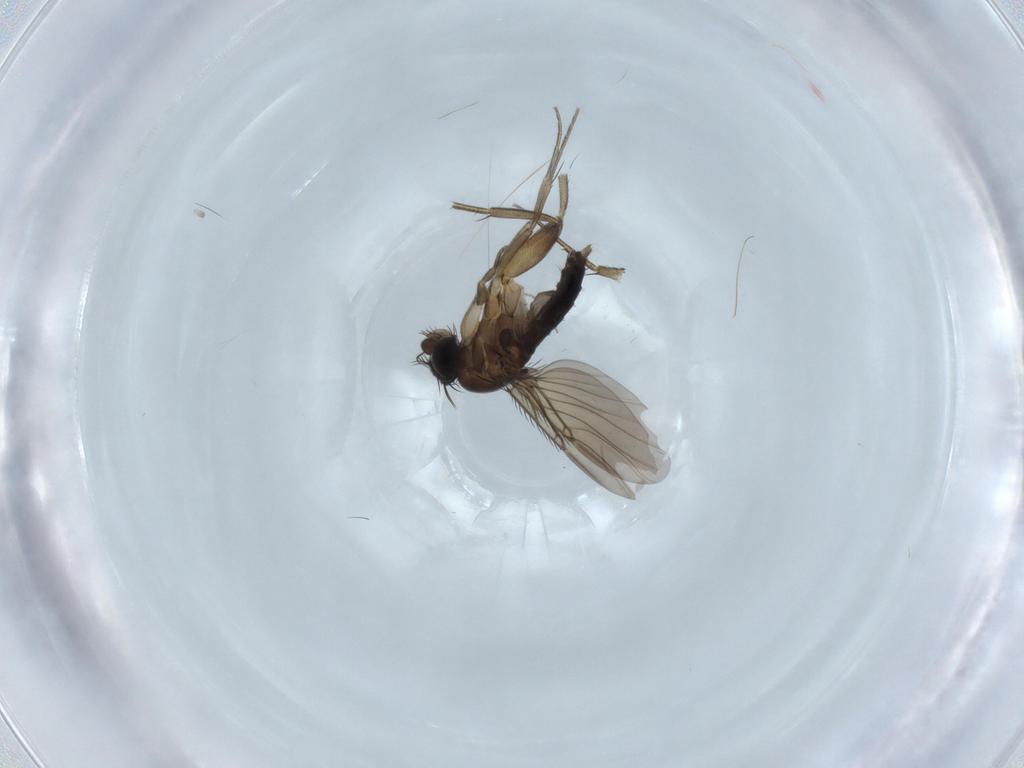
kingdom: Animalia
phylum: Arthropoda
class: Insecta
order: Diptera
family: Phoridae
